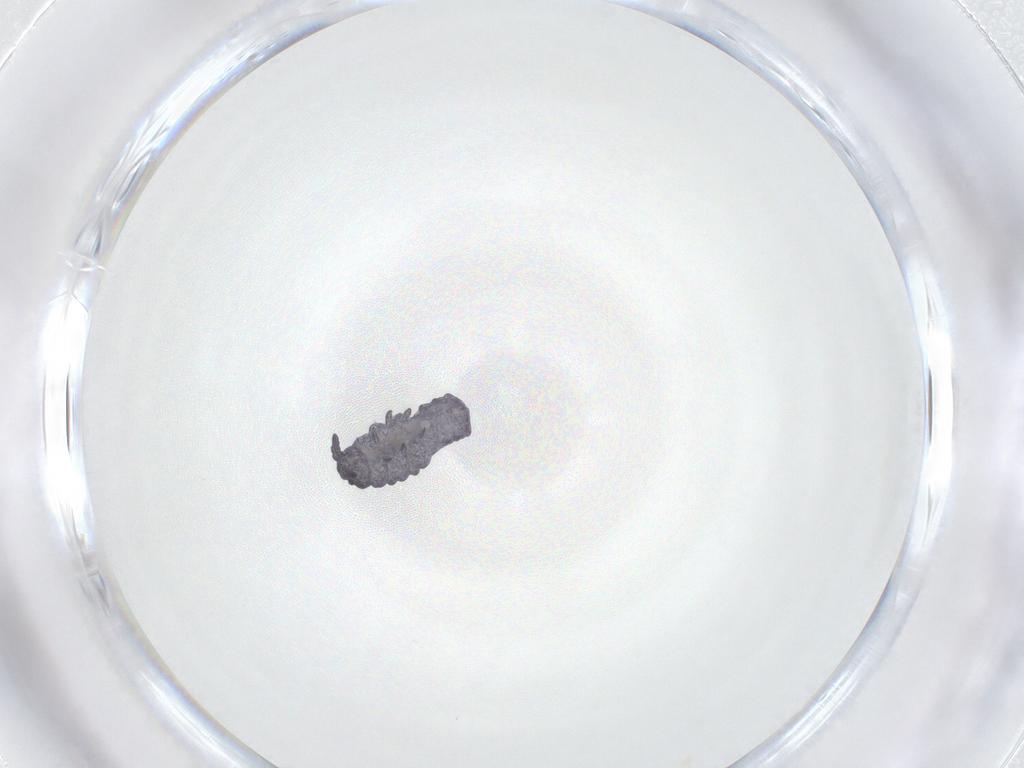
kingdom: Animalia
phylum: Arthropoda
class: Collembola
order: Poduromorpha
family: Neanuridae
